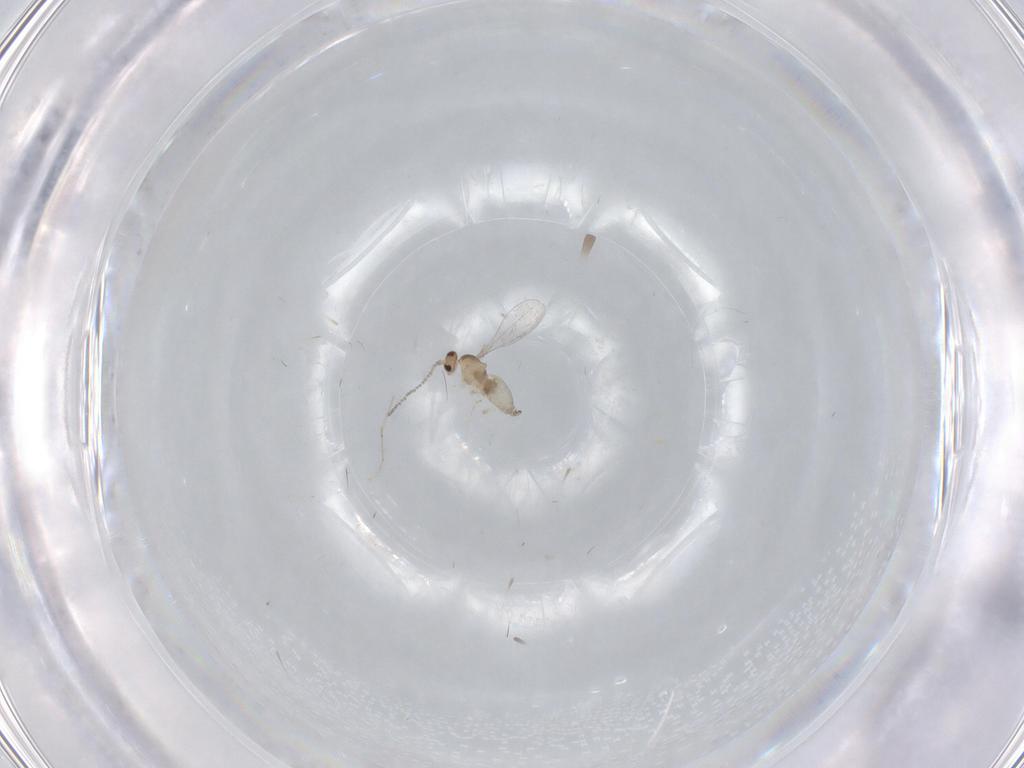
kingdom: Animalia
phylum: Arthropoda
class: Insecta
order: Diptera
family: Cecidomyiidae
